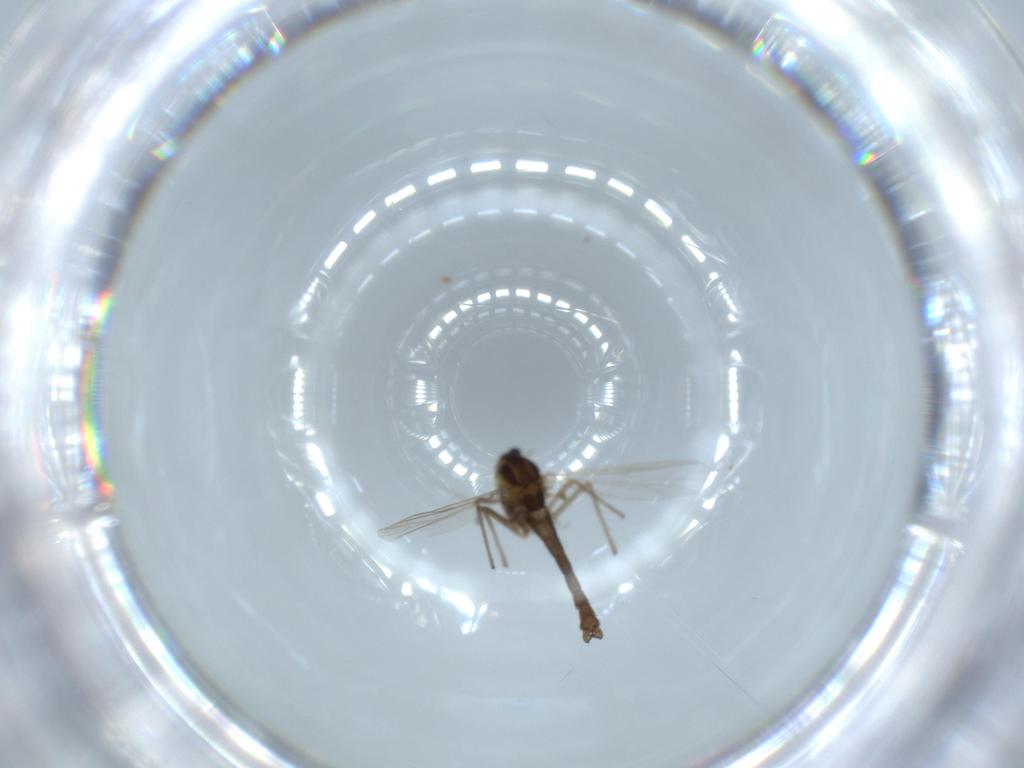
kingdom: Animalia
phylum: Arthropoda
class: Insecta
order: Diptera
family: Chironomidae
